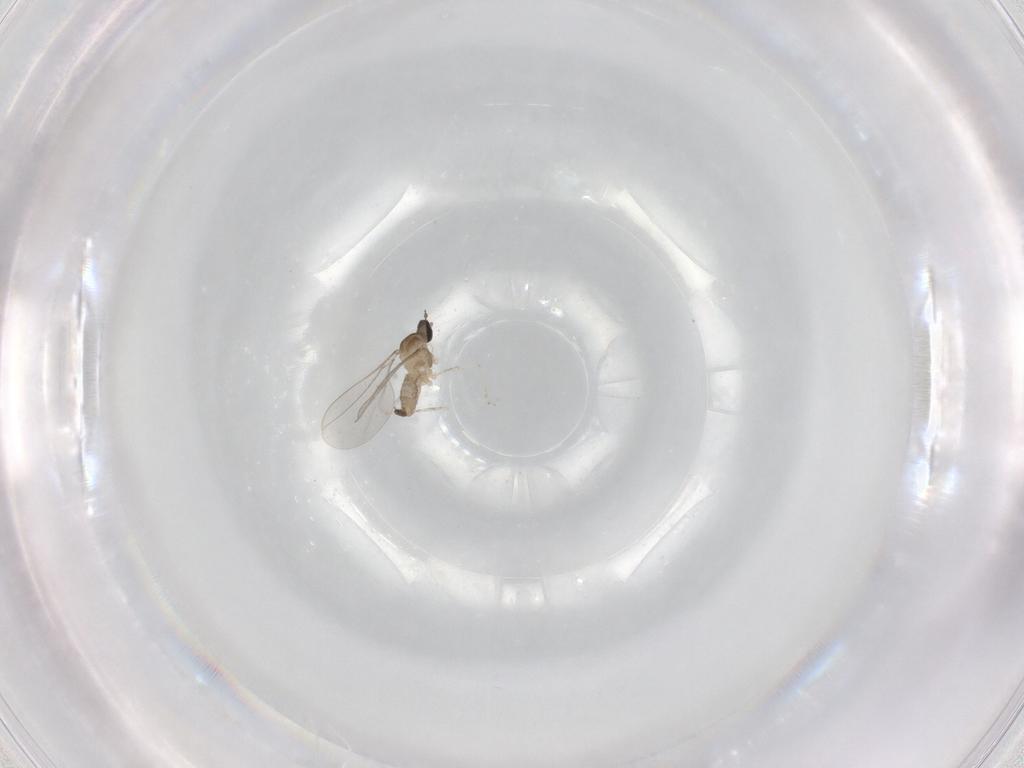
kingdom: Animalia
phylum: Arthropoda
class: Insecta
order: Diptera
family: Cecidomyiidae
